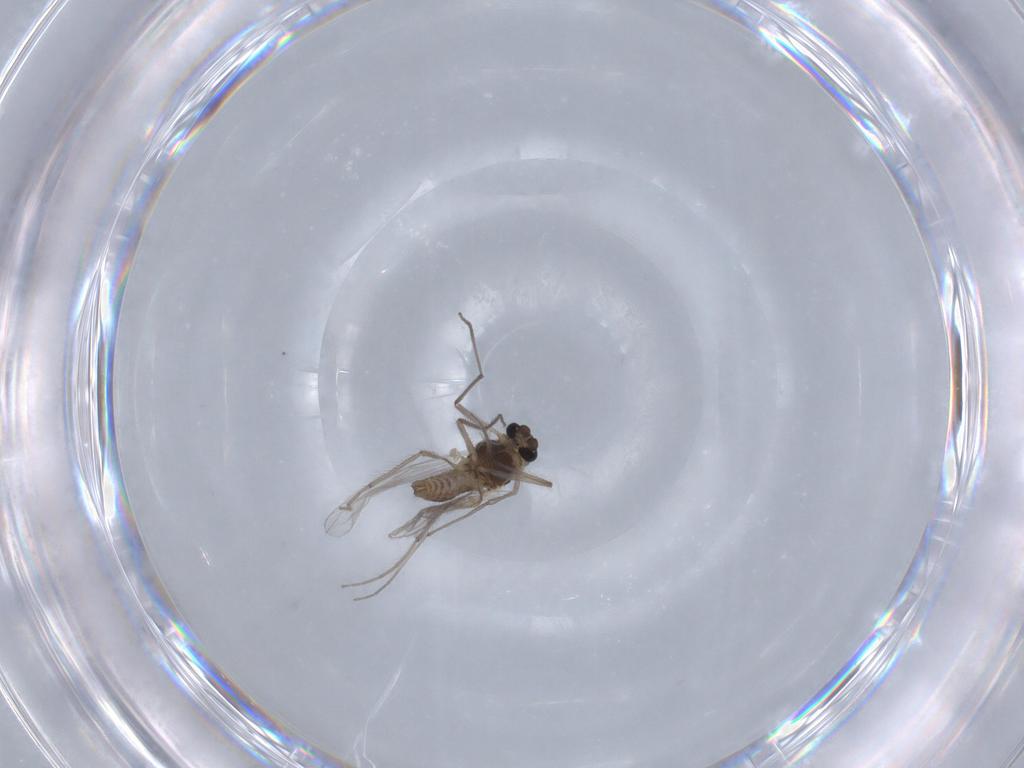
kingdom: Animalia
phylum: Arthropoda
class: Insecta
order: Diptera
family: Chironomidae
